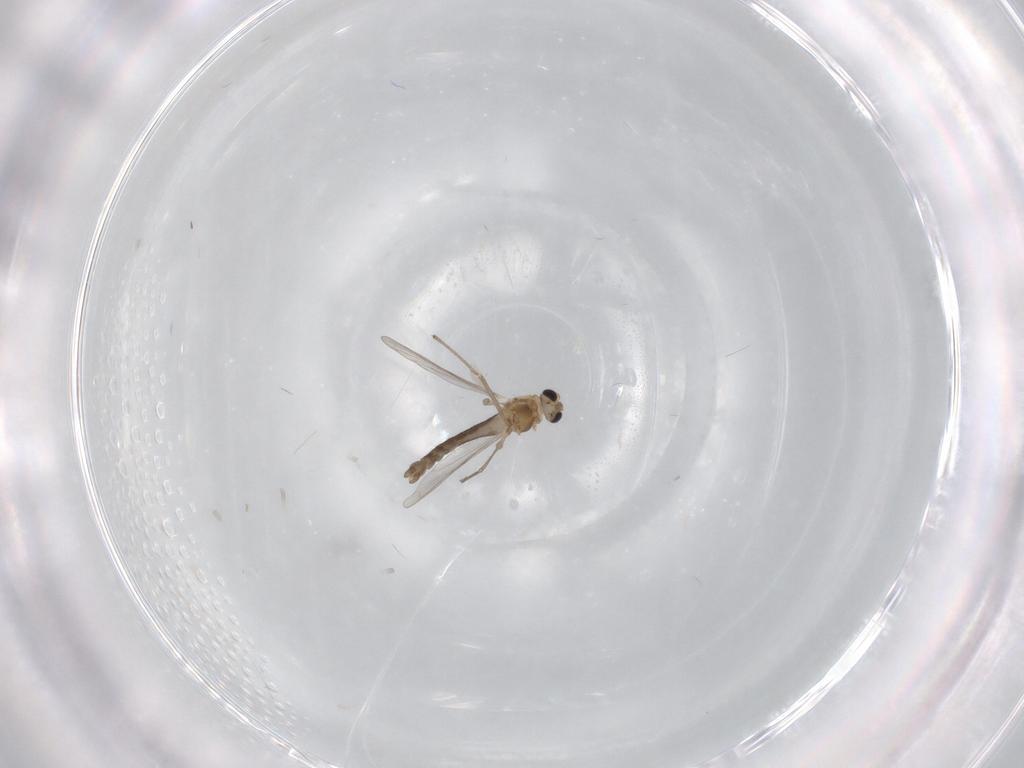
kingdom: Animalia
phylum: Arthropoda
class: Insecta
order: Diptera
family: Chironomidae
